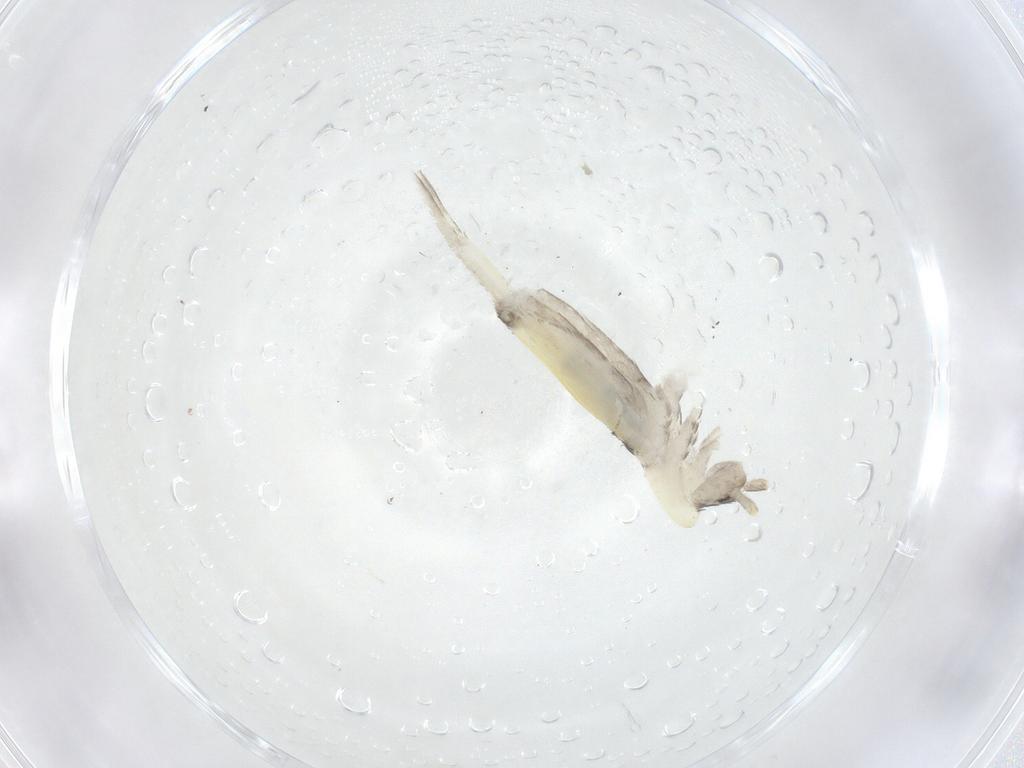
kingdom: Animalia
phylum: Arthropoda
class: Collembola
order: Entomobryomorpha
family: Entomobryidae
